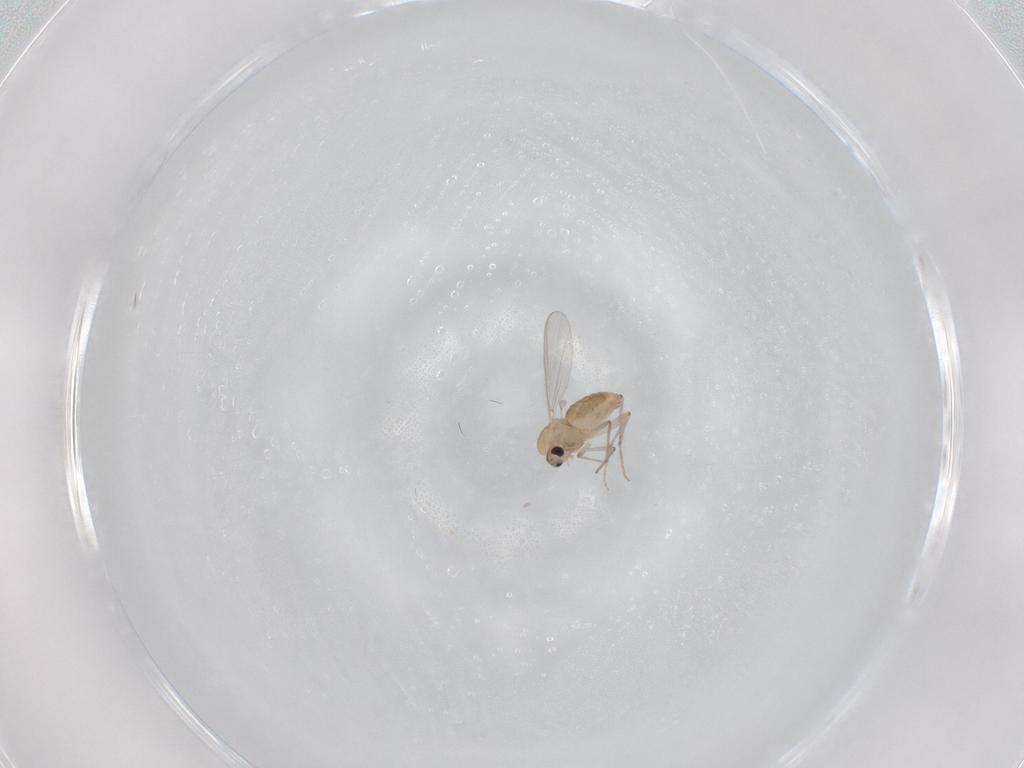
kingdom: Animalia
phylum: Arthropoda
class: Insecta
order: Diptera
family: Chironomidae
